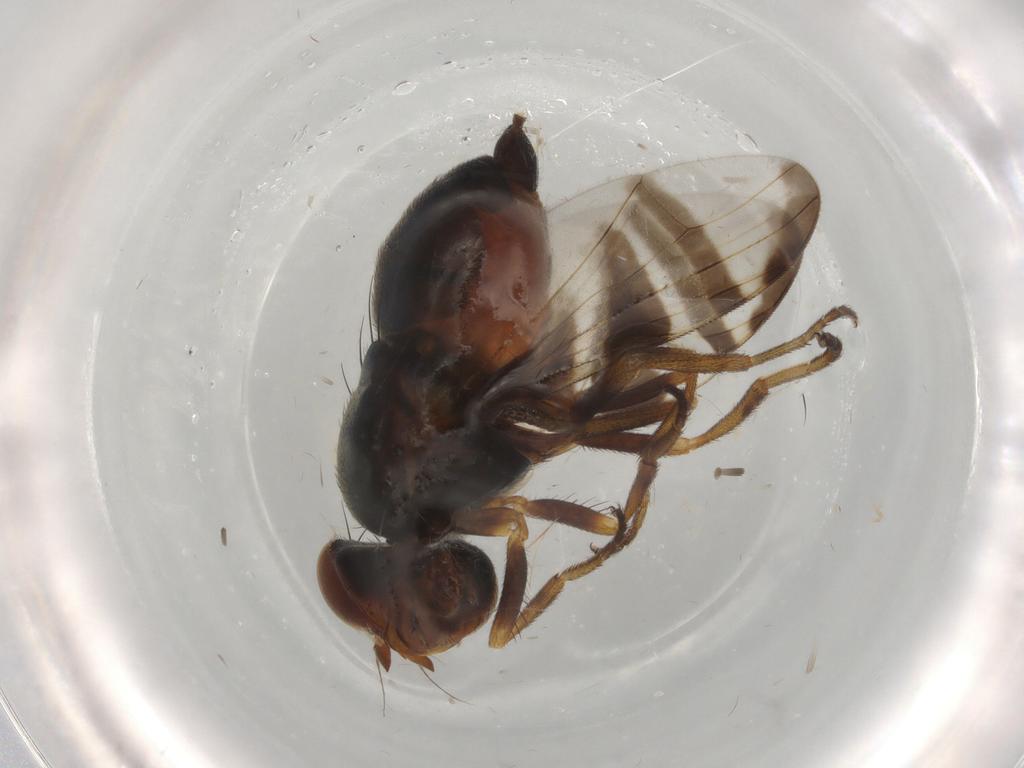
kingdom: Animalia
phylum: Arthropoda
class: Insecta
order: Diptera
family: Platystomatidae
